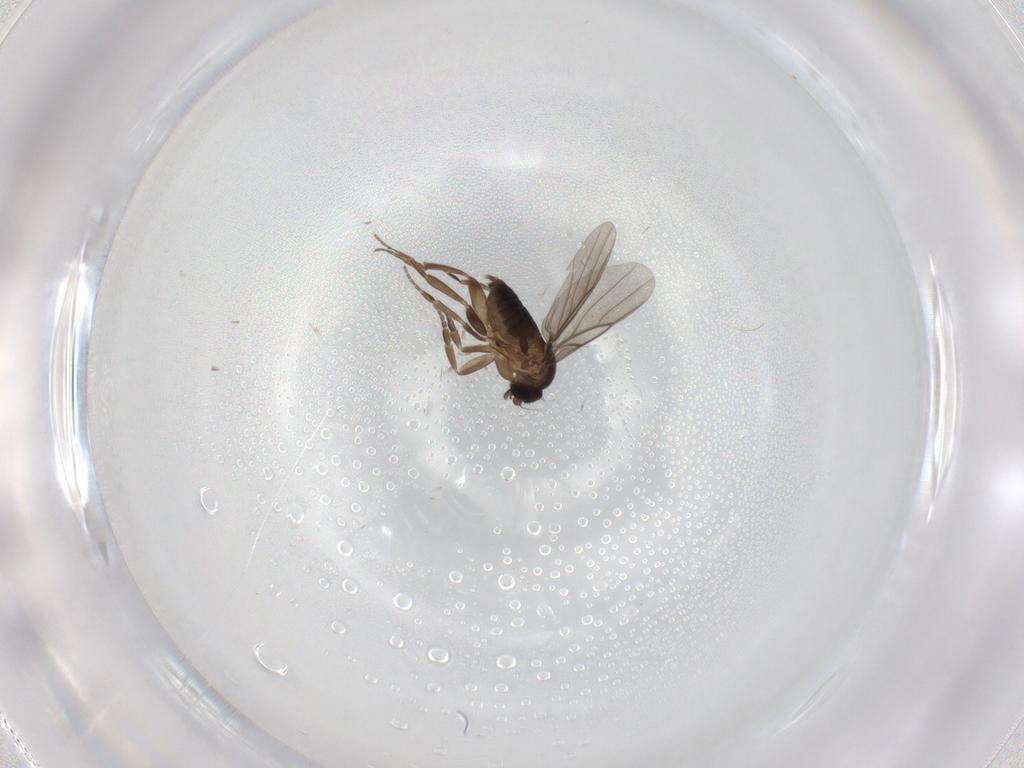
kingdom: Animalia
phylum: Arthropoda
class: Insecta
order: Diptera
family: Phoridae
